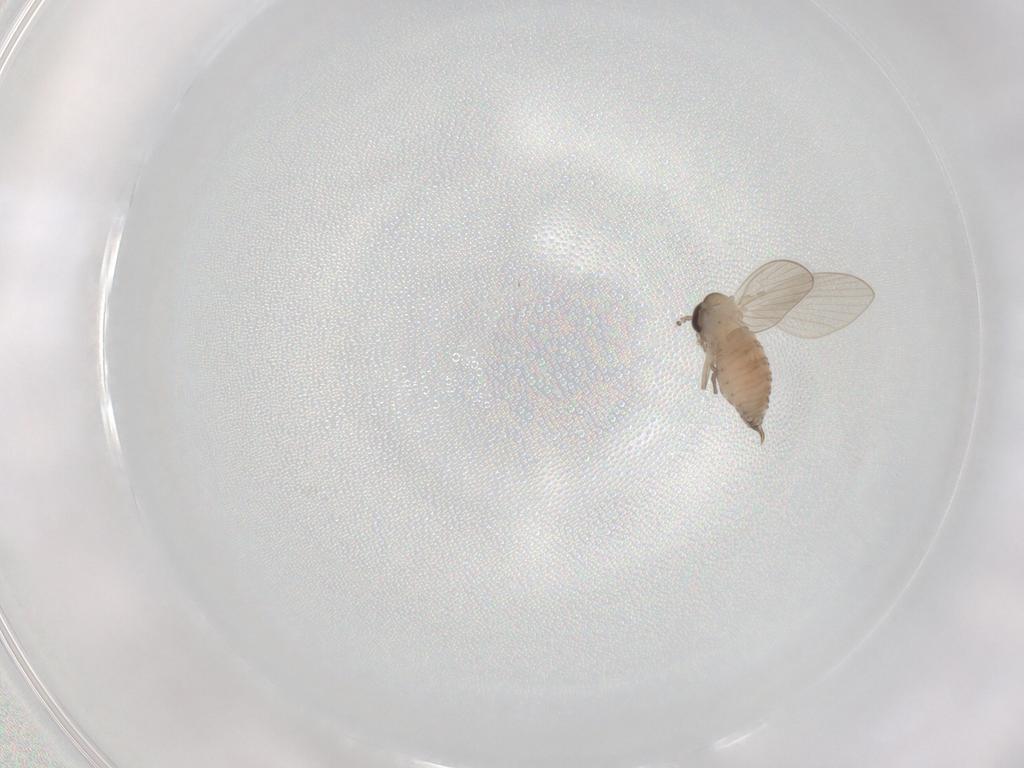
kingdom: Animalia
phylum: Arthropoda
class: Insecta
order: Diptera
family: Psychodidae
